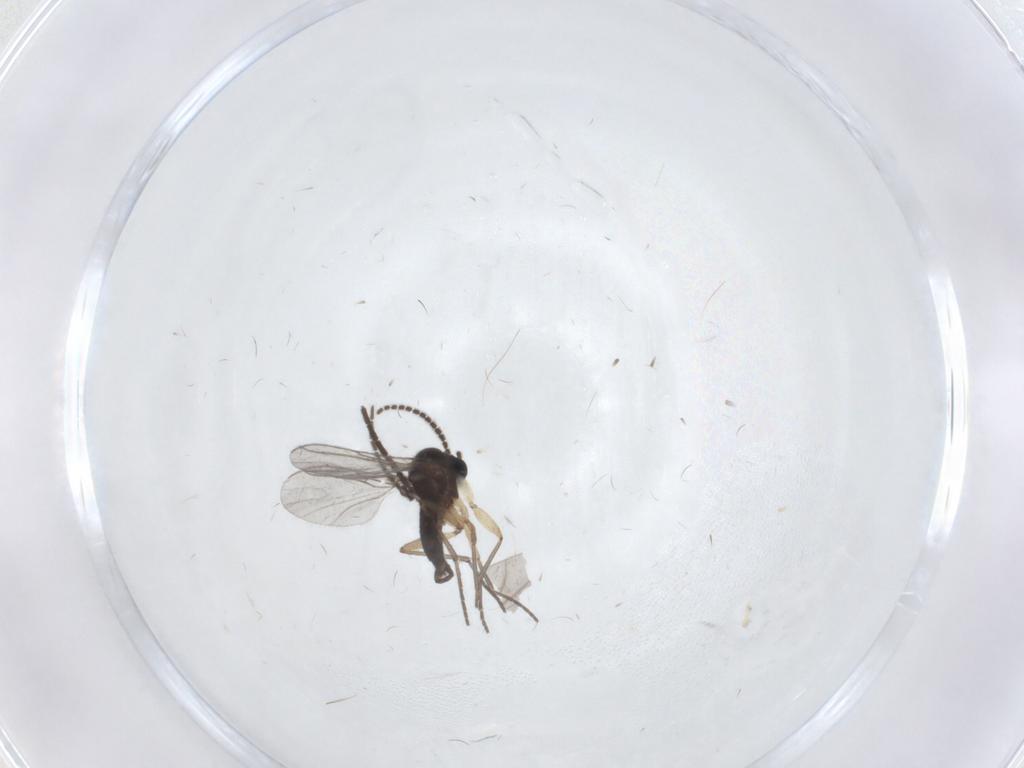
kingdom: Animalia
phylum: Arthropoda
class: Insecta
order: Diptera
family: Sciaridae
